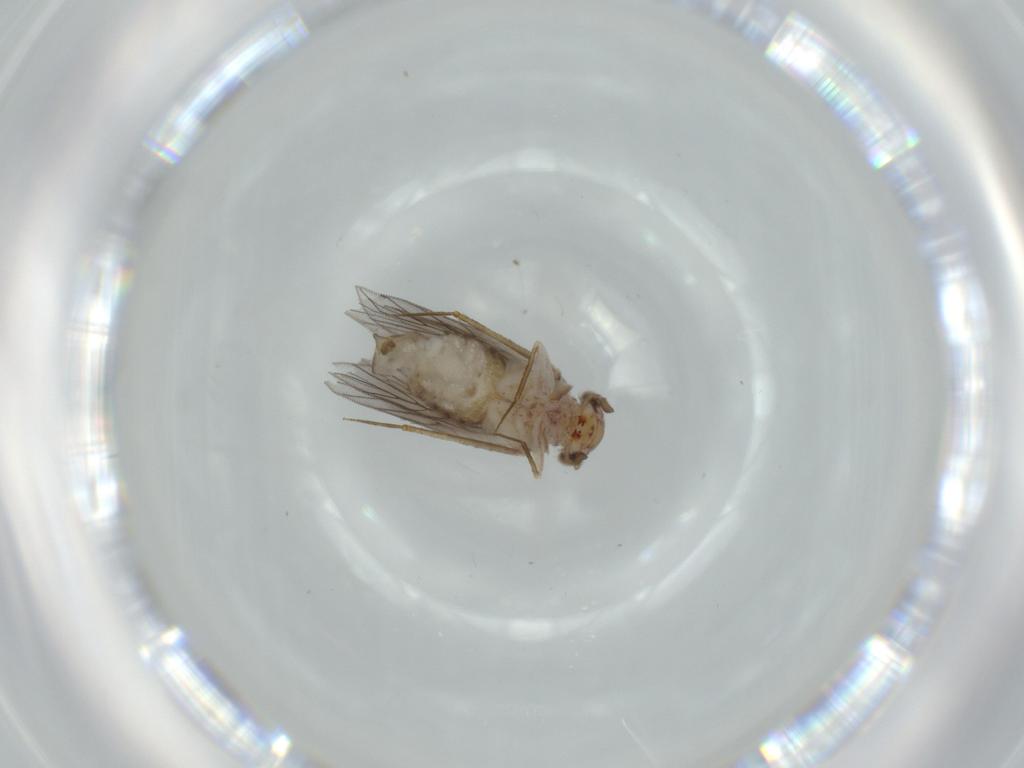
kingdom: Animalia
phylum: Arthropoda
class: Insecta
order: Psocodea
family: Lepidopsocidae
